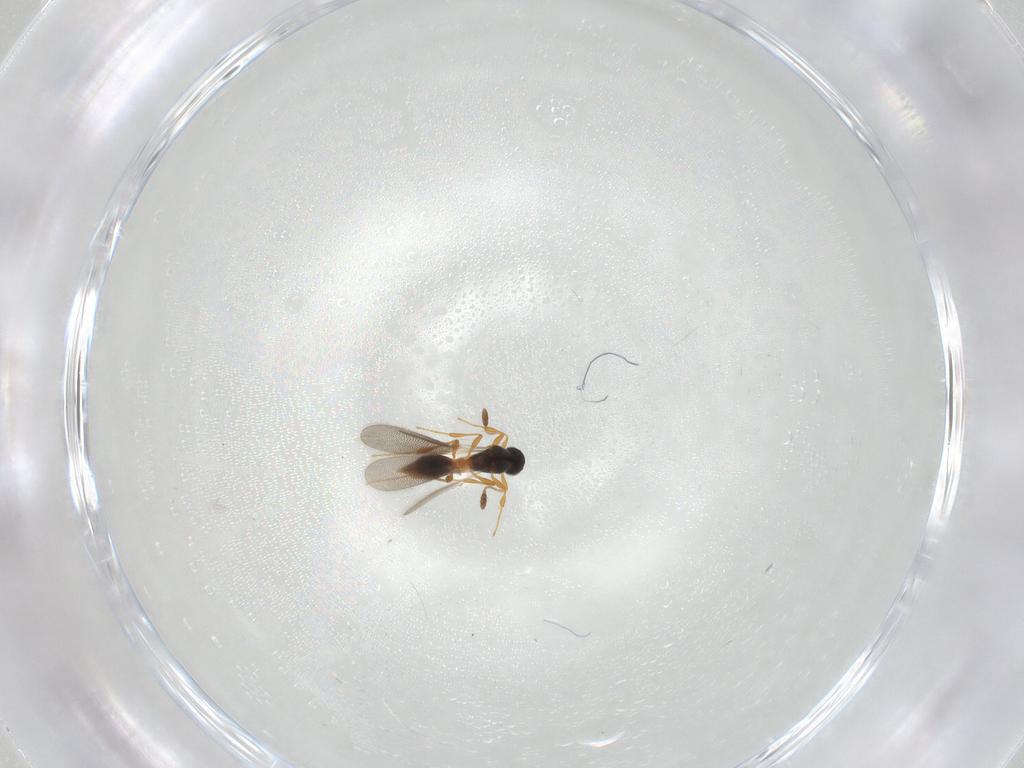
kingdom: Animalia
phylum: Arthropoda
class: Insecta
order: Hymenoptera
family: Platygastridae
